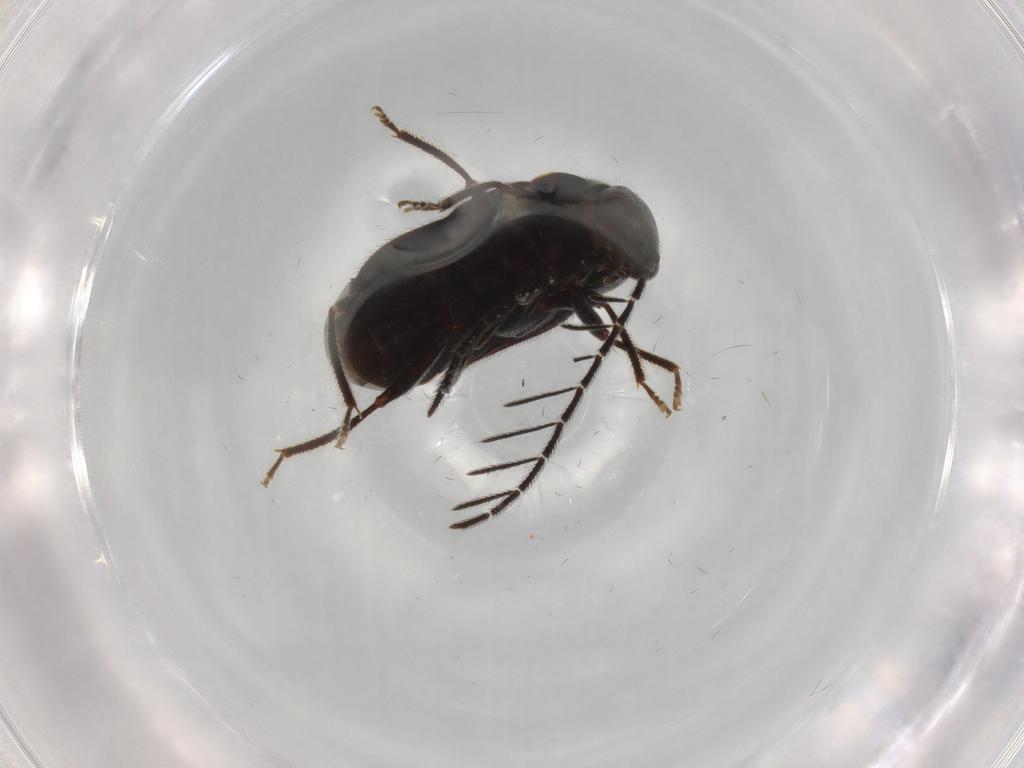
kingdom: Animalia
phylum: Arthropoda
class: Insecta
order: Coleoptera
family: Ptilodactylidae
